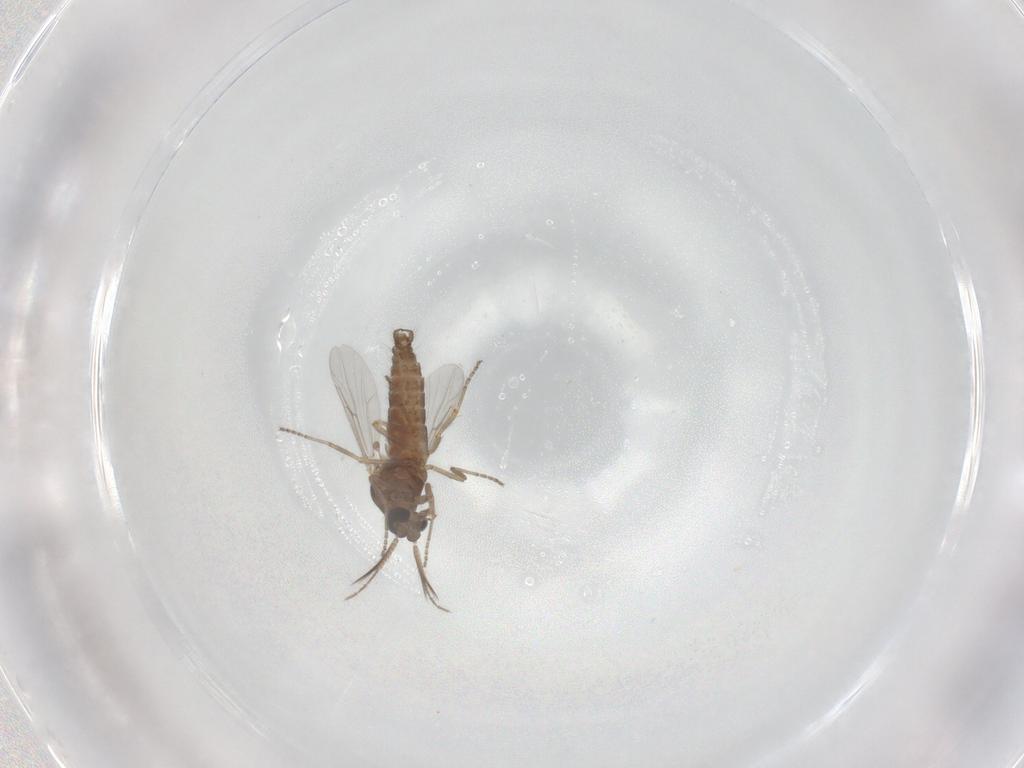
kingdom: Animalia
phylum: Arthropoda
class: Insecta
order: Diptera
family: Ceratopogonidae
